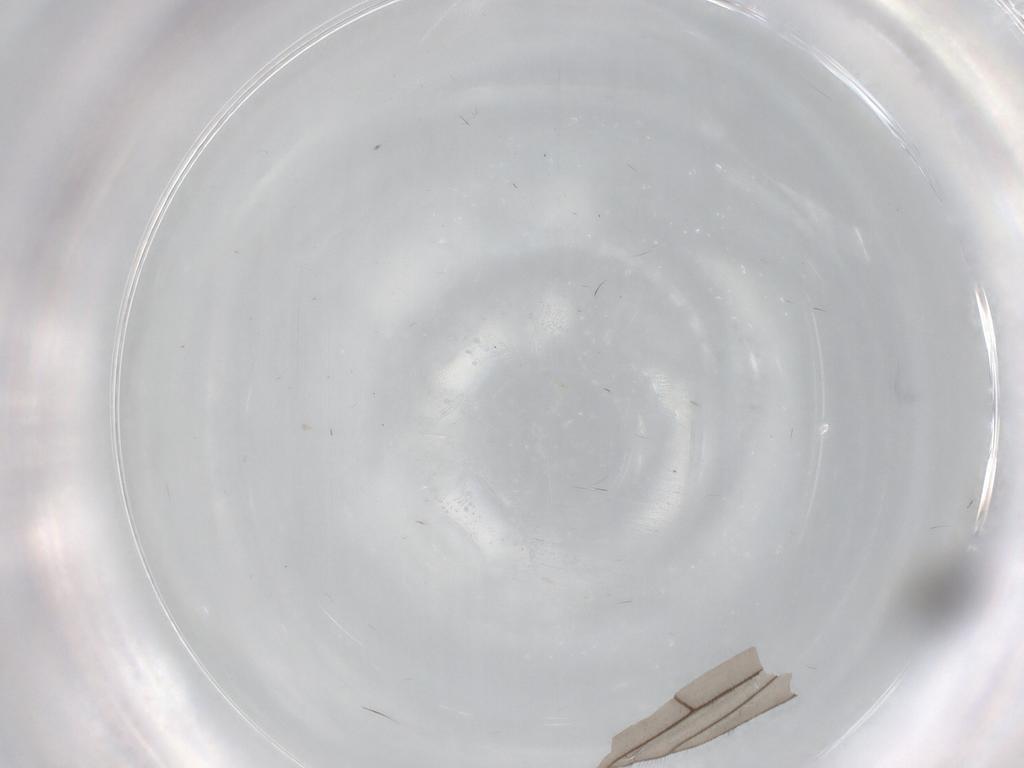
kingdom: Animalia
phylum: Arthropoda
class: Insecta
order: Diptera
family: Sciaridae
